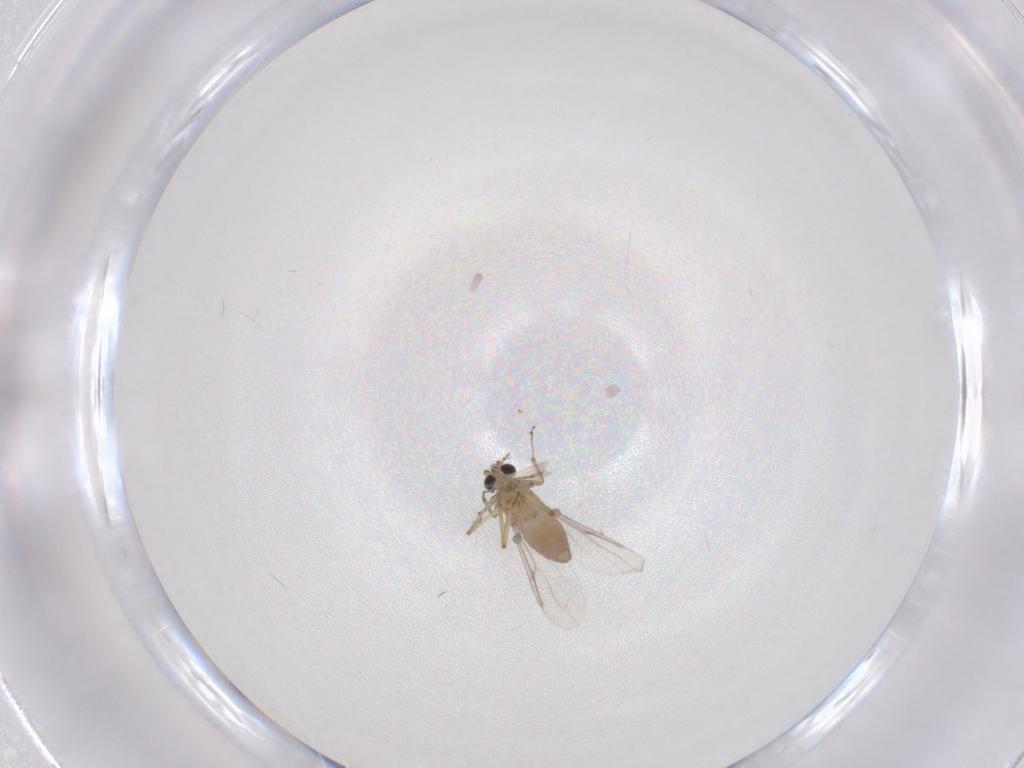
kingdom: Animalia
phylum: Arthropoda
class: Insecta
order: Diptera
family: Ceratopogonidae
